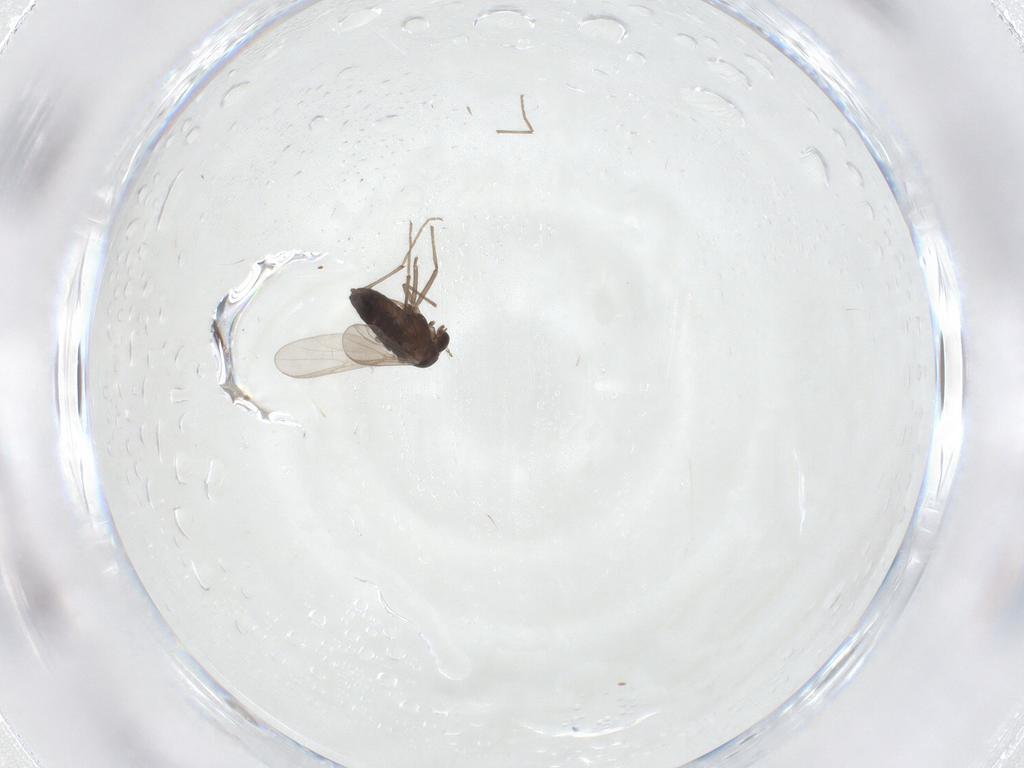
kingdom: Animalia
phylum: Arthropoda
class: Insecta
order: Diptera
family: Chironomidae
